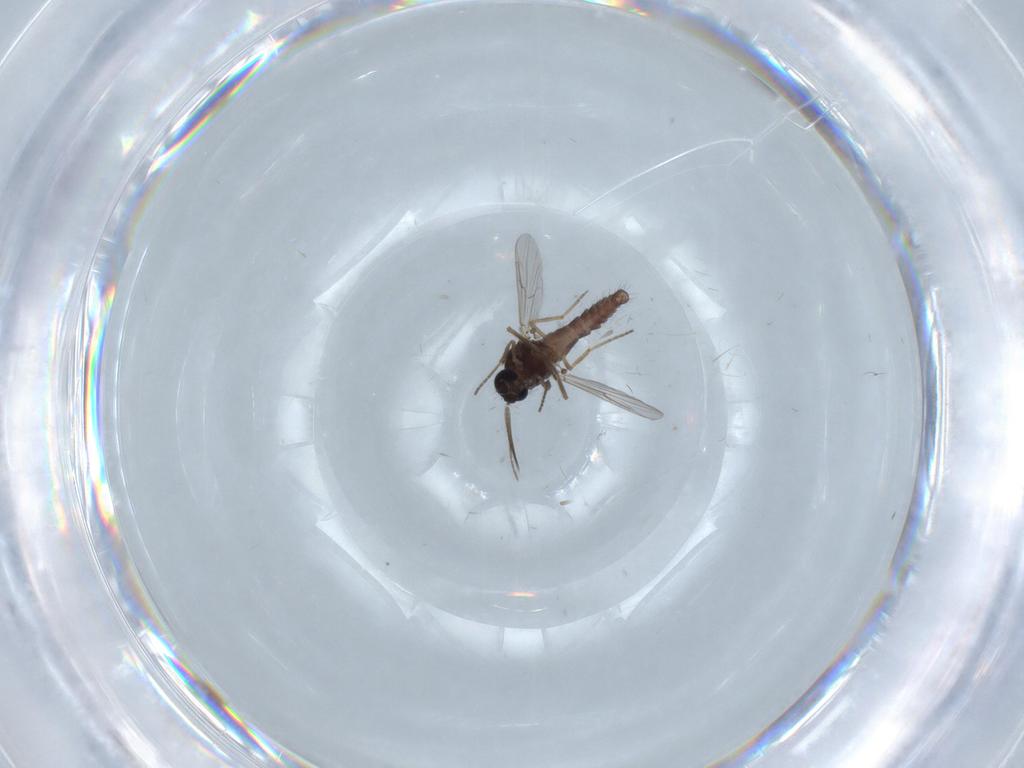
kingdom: Animalia
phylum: Arthropoda
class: Insecta
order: Diptera
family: Ceratopogonidae
